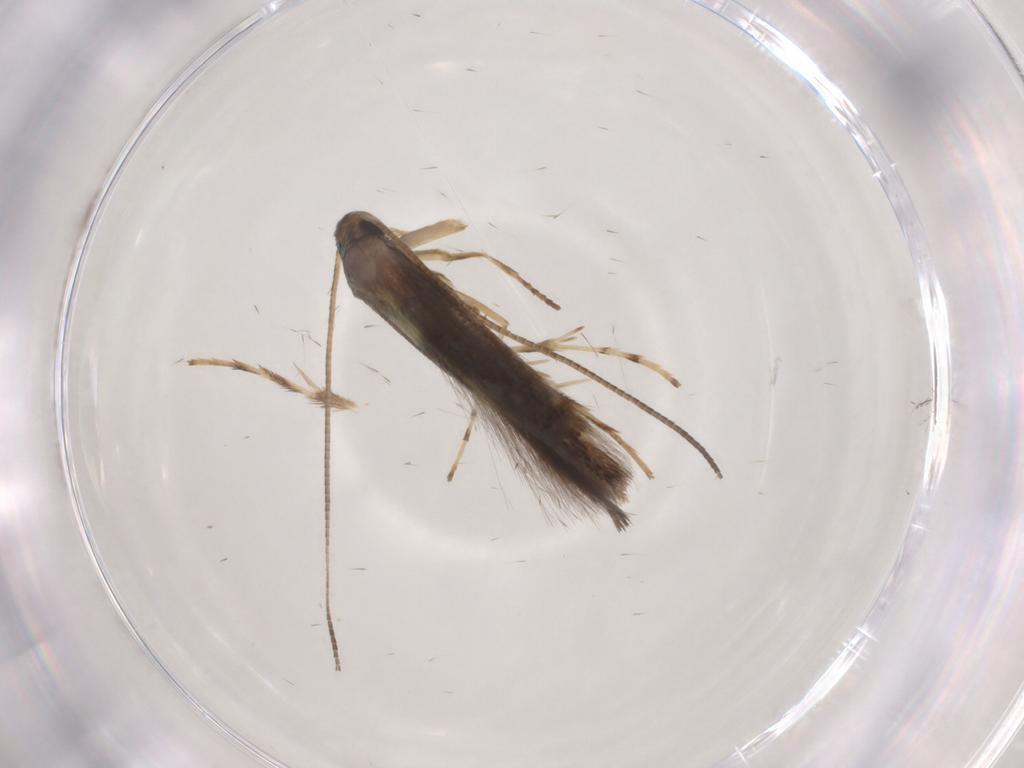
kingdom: Animalia
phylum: Arthropoda
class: Insecta
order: Lepidoptera
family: Gracillariidae
